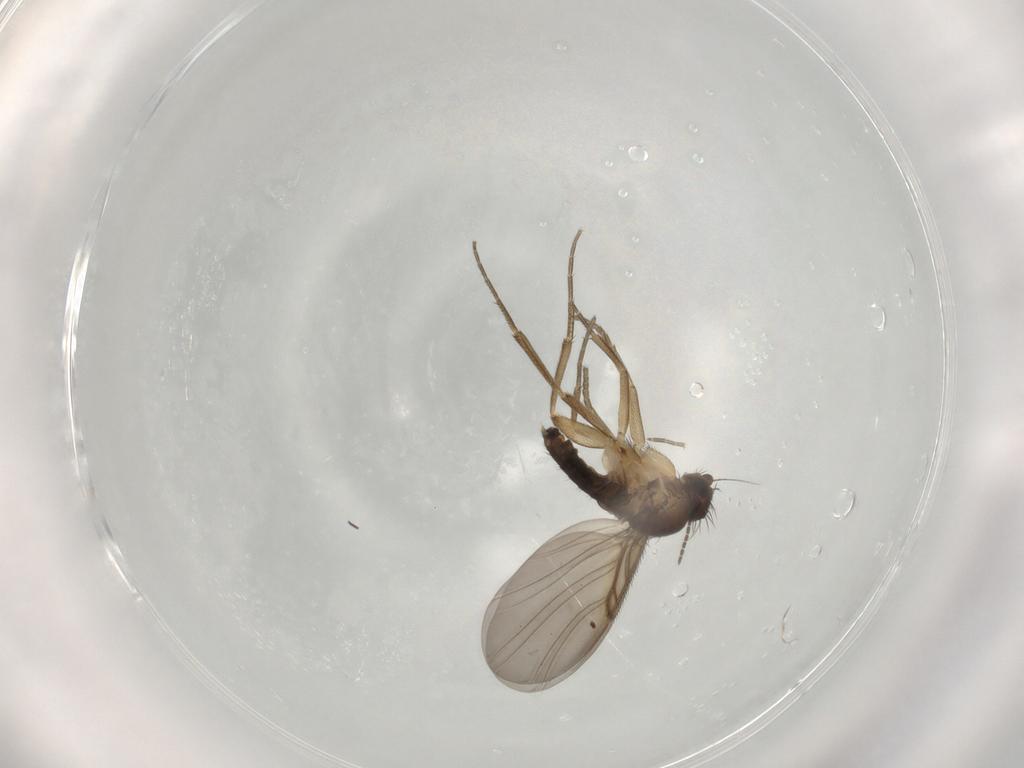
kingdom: Animalia
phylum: Arthropoda
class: Insecta
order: Diptera
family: Phoridae
